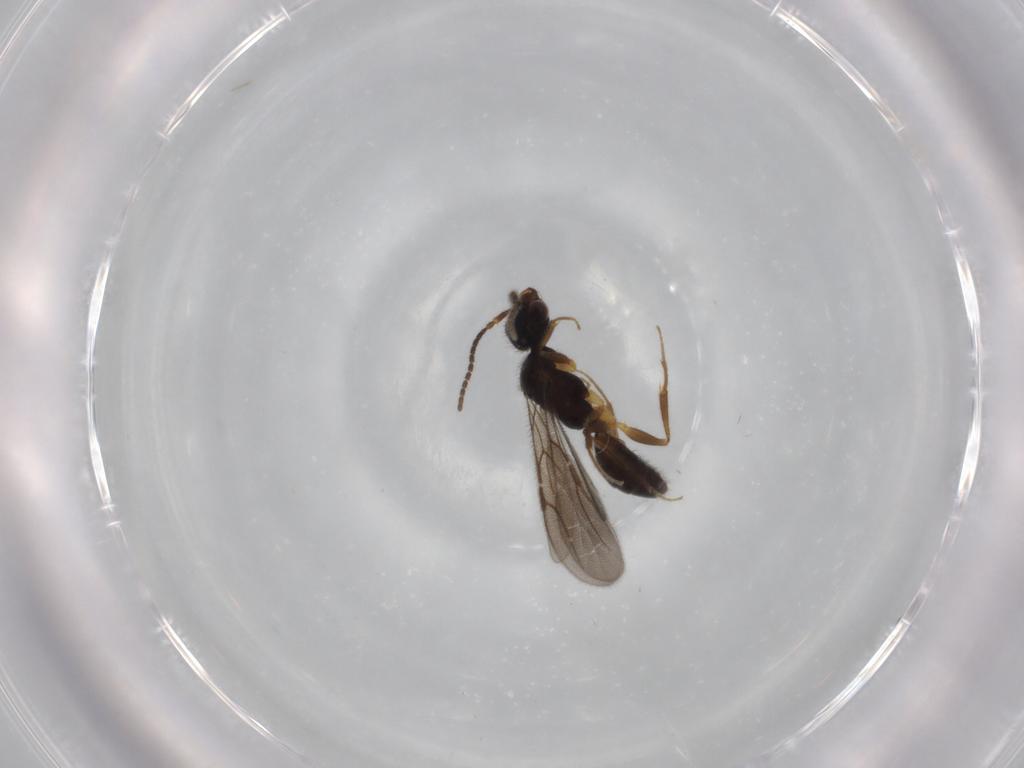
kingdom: Animalia
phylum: Arthropoda
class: Insecta
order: Hymenoptera
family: Bethylidae
